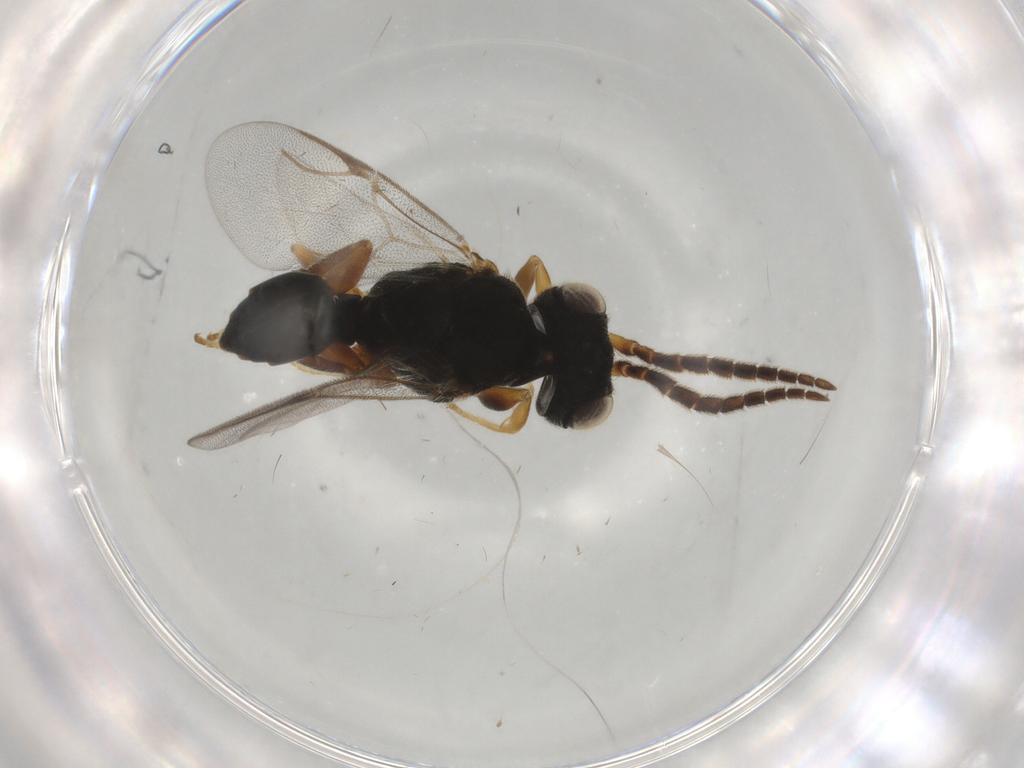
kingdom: Animalia
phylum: Arthropoda
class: Insecta
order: Hymenoptera
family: Dryinidae
